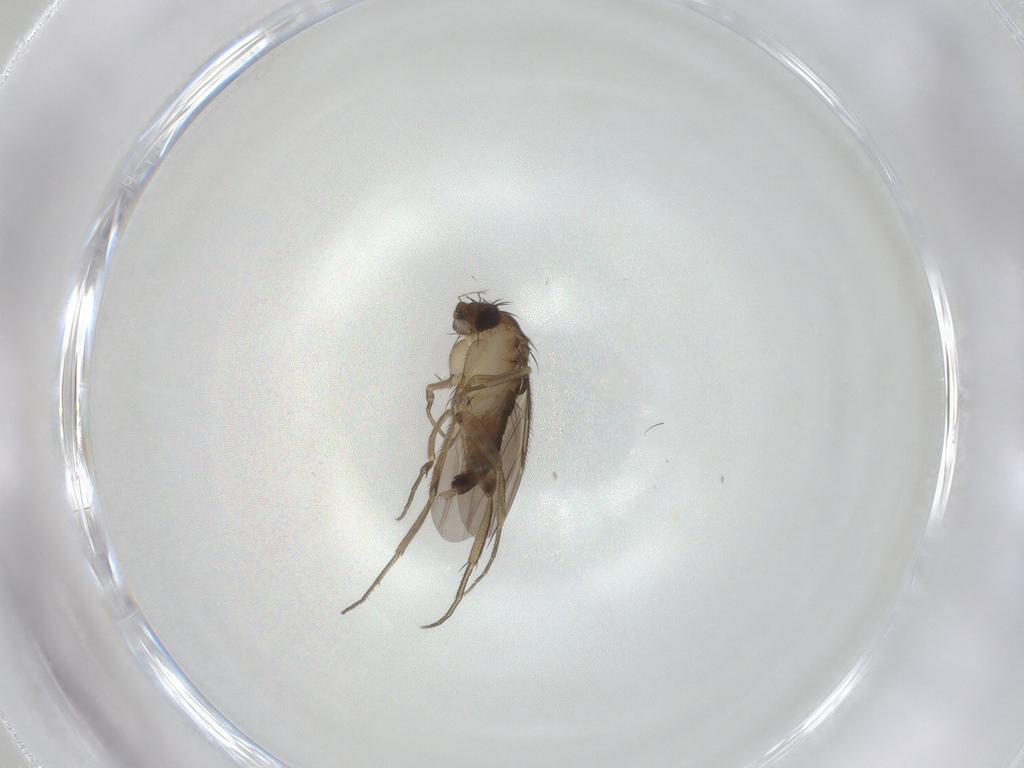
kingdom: Animalia
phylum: Arthropoda
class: Insecta
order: Diptera
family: Phoridae
